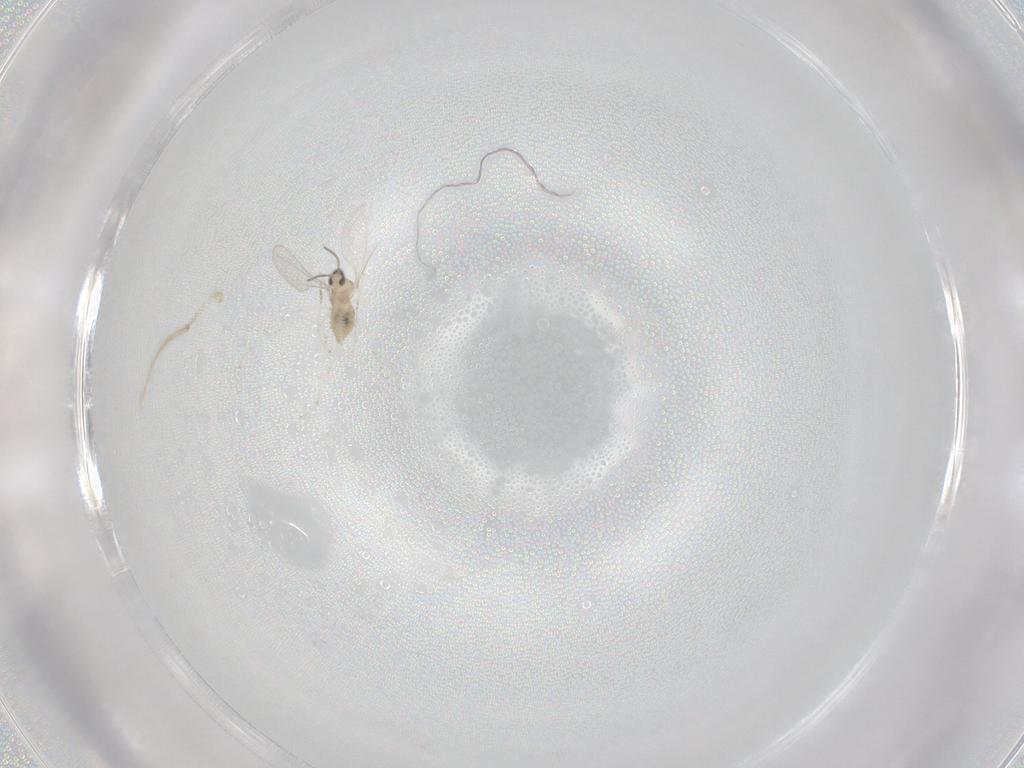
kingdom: Animalia
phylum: Arthropoda
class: Insecta
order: Diptera
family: Cecidomyiidae
